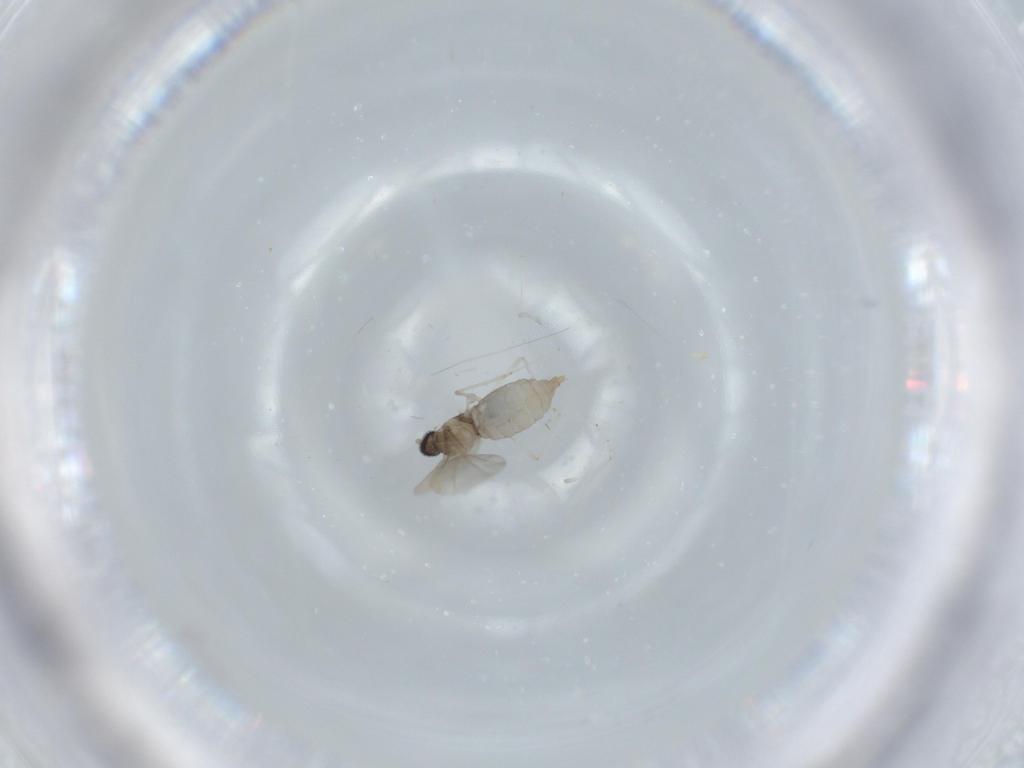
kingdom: Animalia
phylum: Arthropoda
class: Insecta
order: Diptera
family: Cecidomyiidae
